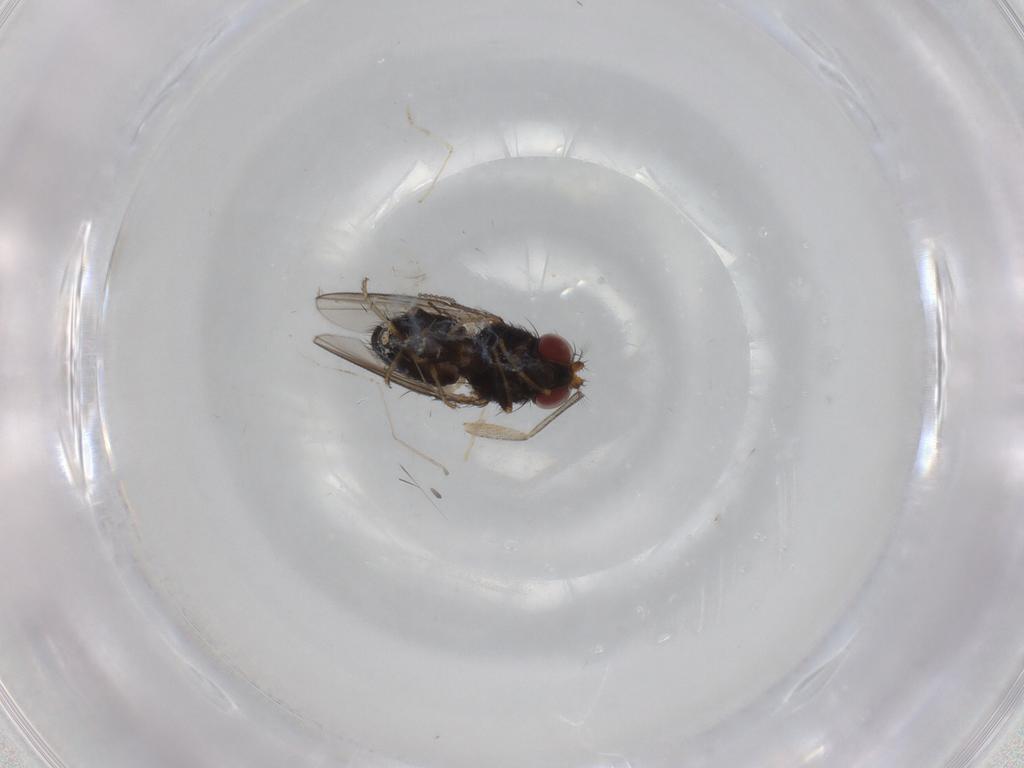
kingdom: Animalia
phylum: Arthropoda
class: Insecta
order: Diptera
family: Ephydridae
